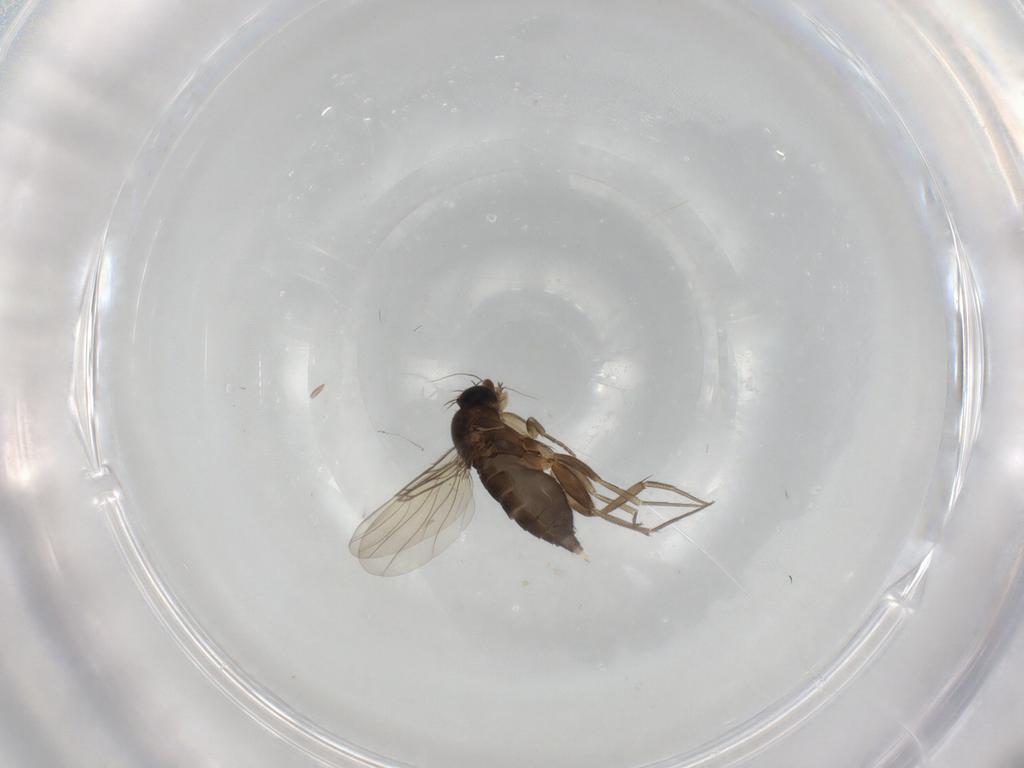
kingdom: Animalia
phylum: Arthropoda
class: Insecta
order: Diptera
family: Phoridae
